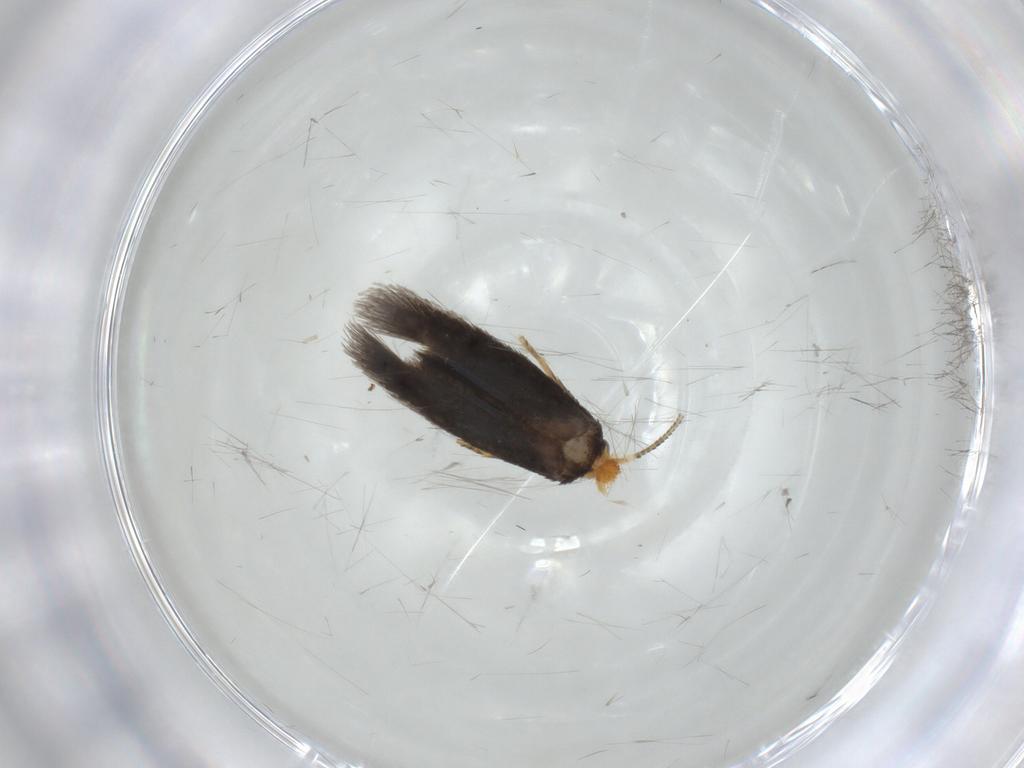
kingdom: Animalia
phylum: Arthropoda
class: Insecta
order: Lepidoptera
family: Nepticulidae
